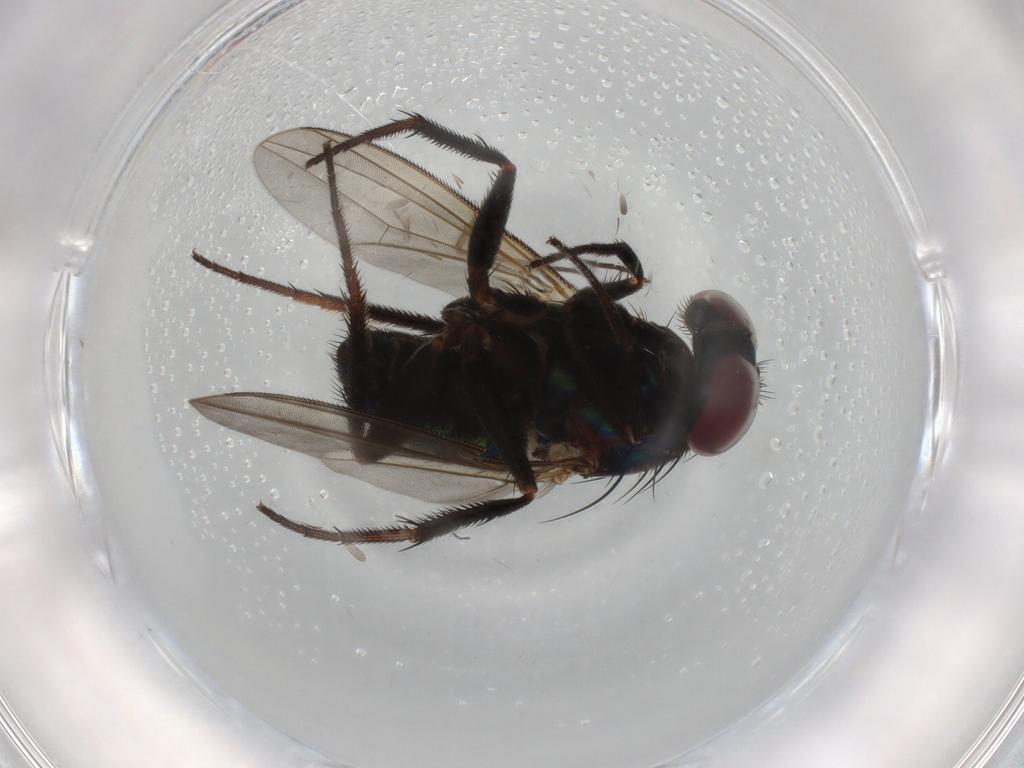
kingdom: Animalia
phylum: Arthropoda
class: Insecta
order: Diptera
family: Dolichopodidae
